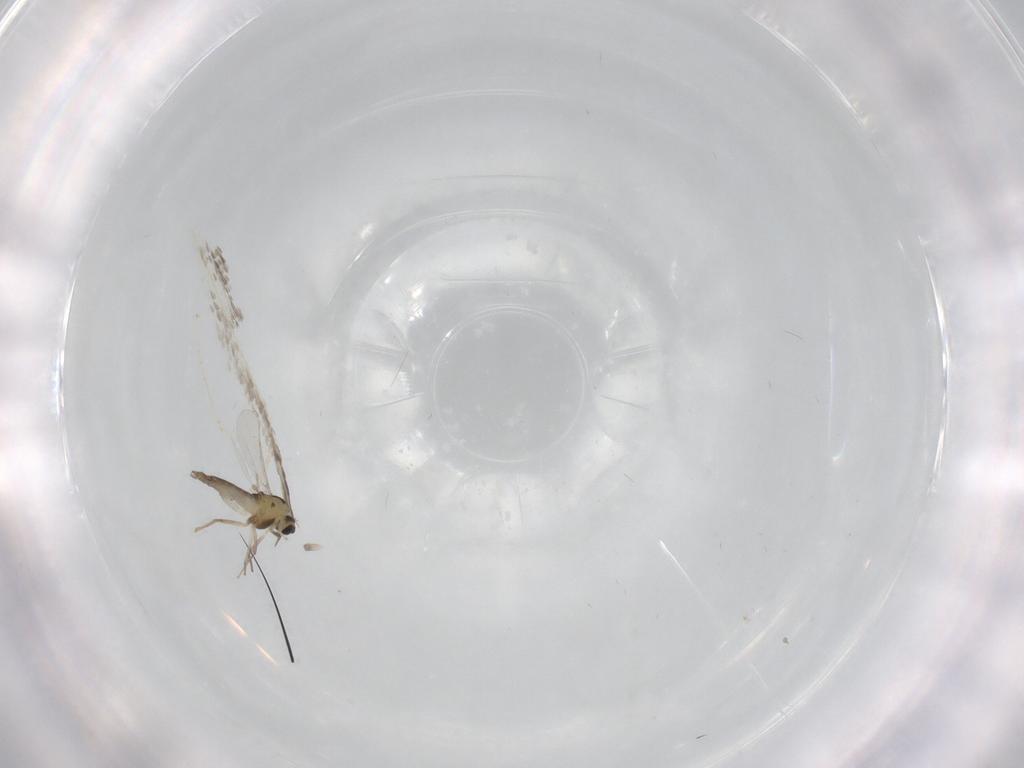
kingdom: Animalia
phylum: Arthropoda
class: Insecta
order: Diptera
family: Cecidomyiidae
